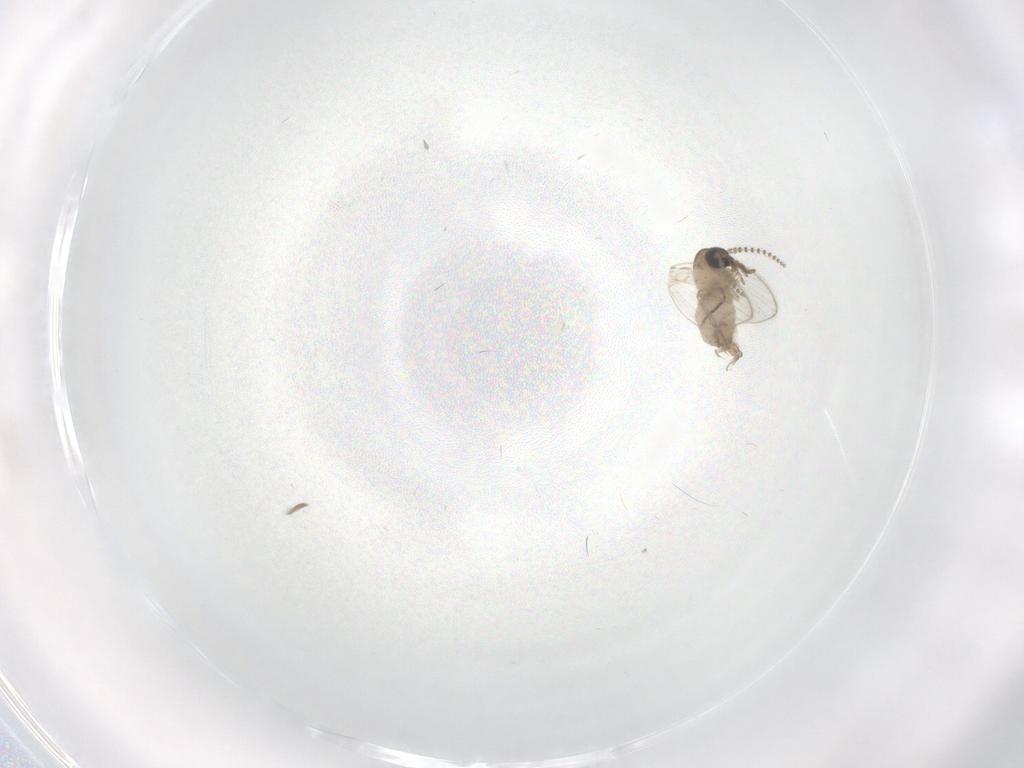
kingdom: Animalia
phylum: Arthropoda
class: Insecta
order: Diptera
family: Psychodidae
